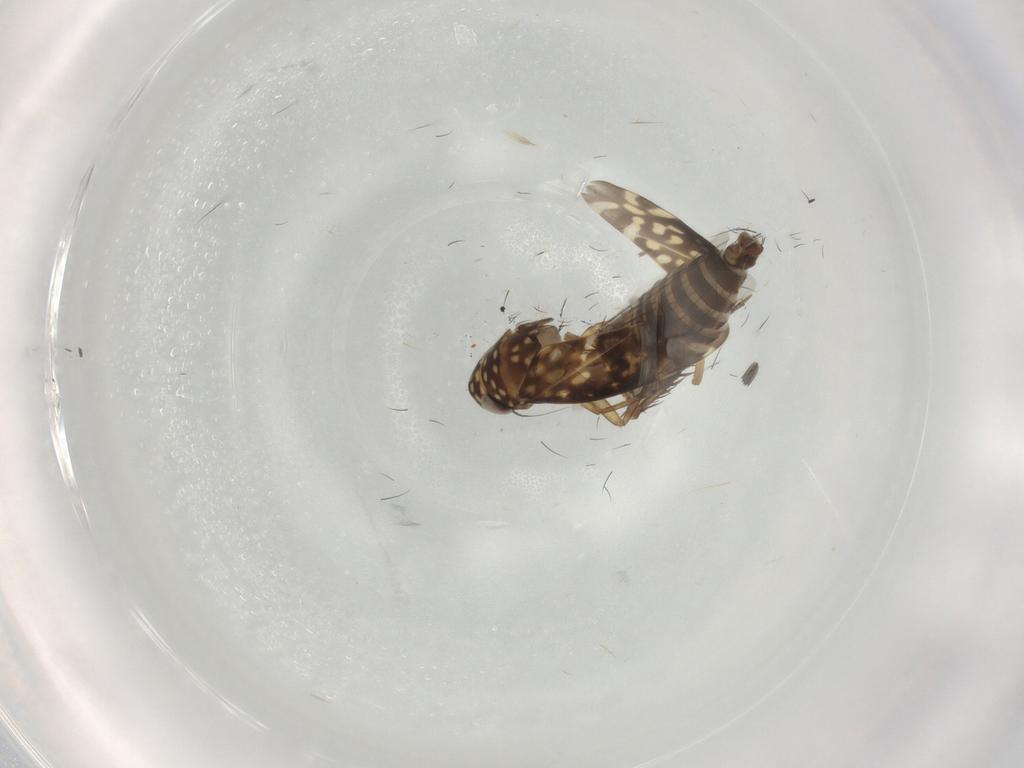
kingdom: Animalia
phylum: Arthropoda
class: Insecta
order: Hemiptera
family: Cicadellidae
